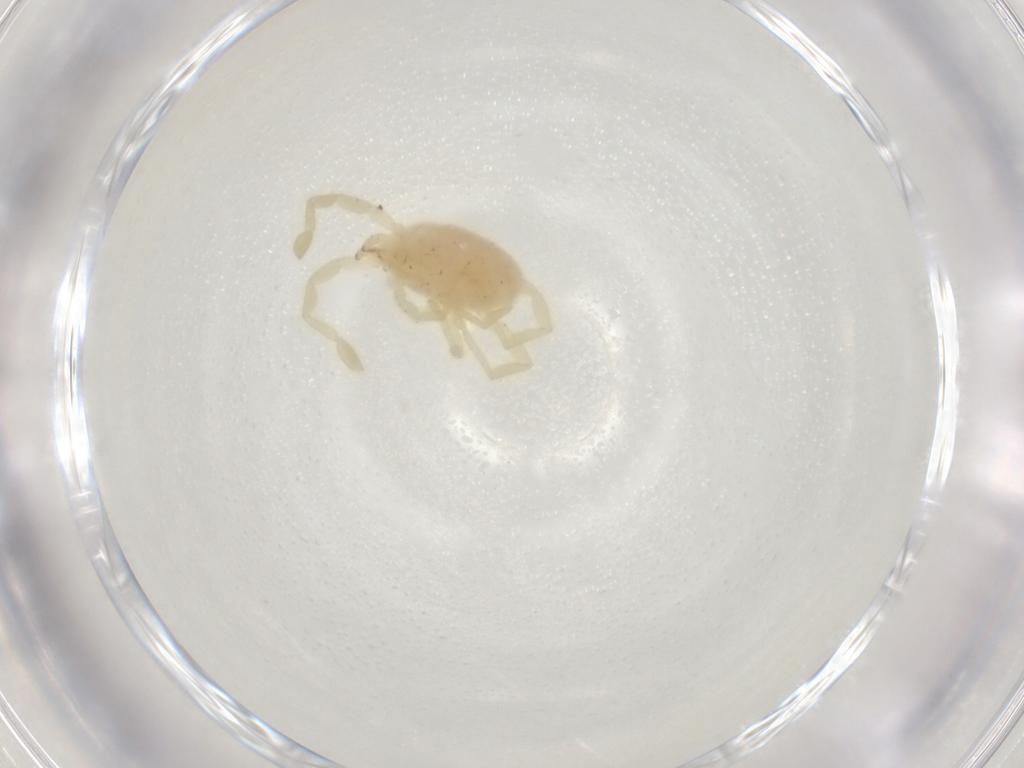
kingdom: Animalia
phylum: Arthropoda
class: Arachnida
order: Trombidiformes
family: Erythraeidae
